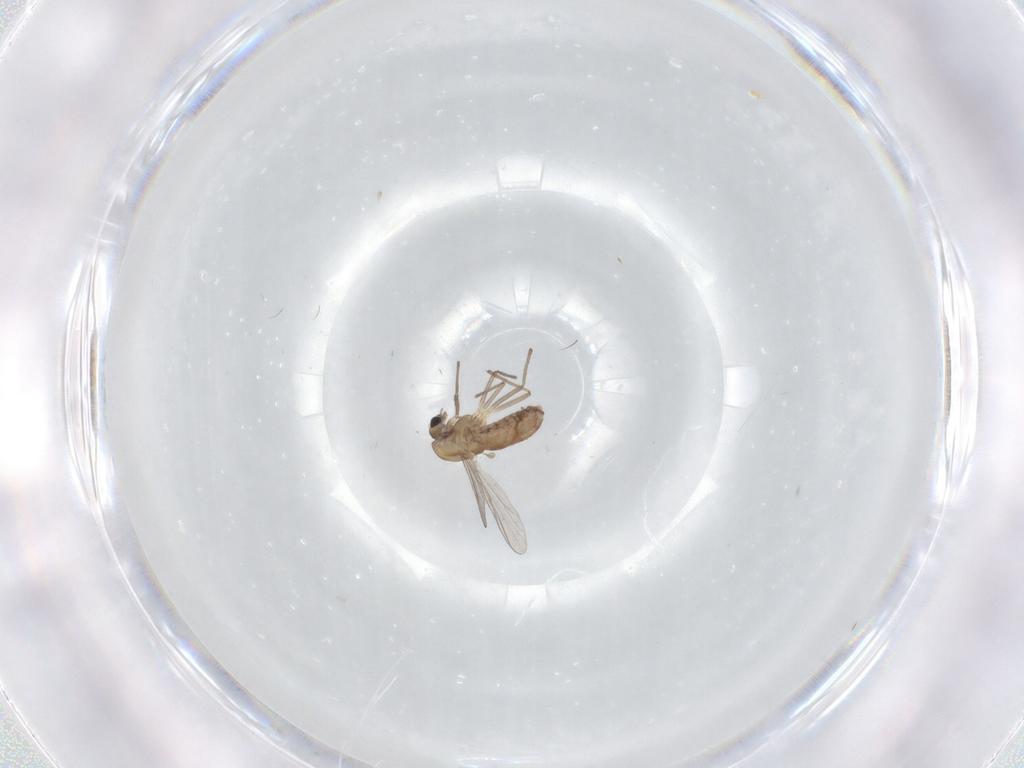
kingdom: Animalia
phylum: Arthropoda
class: Insecta
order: Diptera
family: Chironomidae
